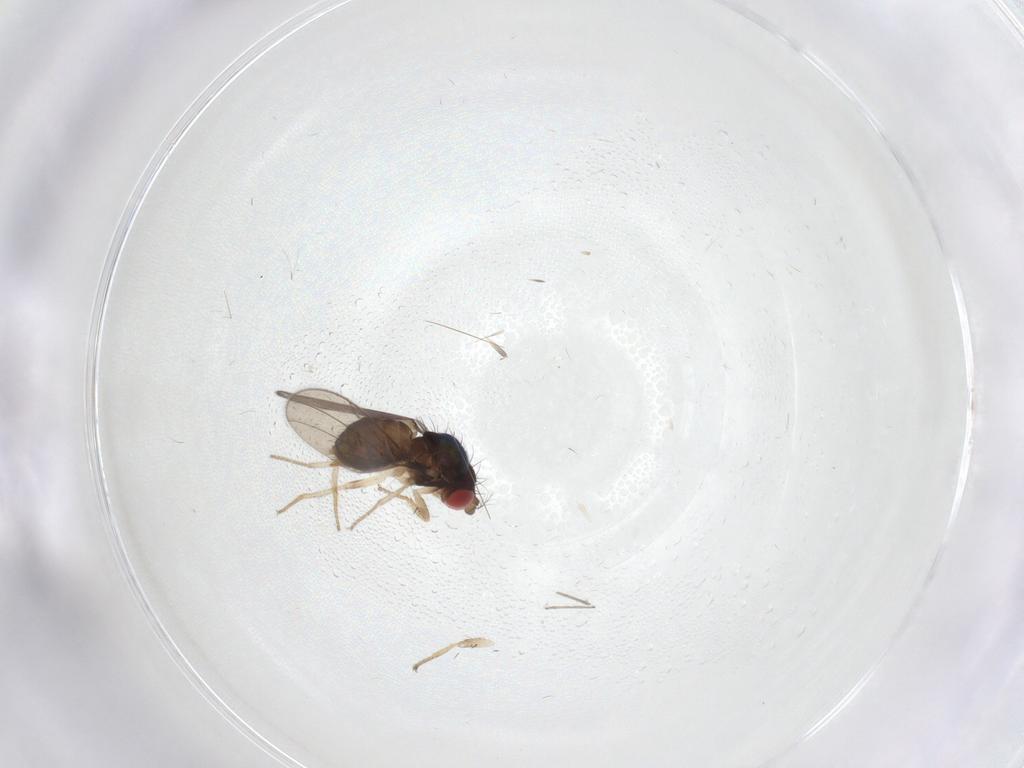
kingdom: Animalia
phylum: Arthropoda
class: Insecta
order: Diptera
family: Drosophilidae
